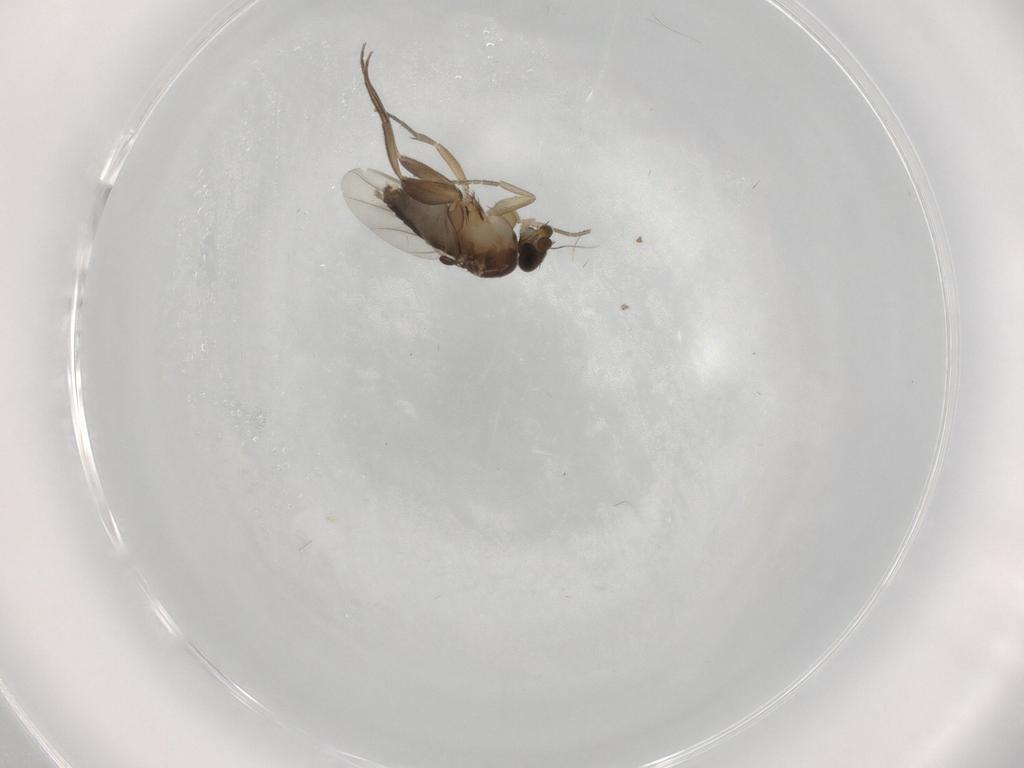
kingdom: Animalia
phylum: Arthropoda
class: Insecta
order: Diptera
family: Phoridae
